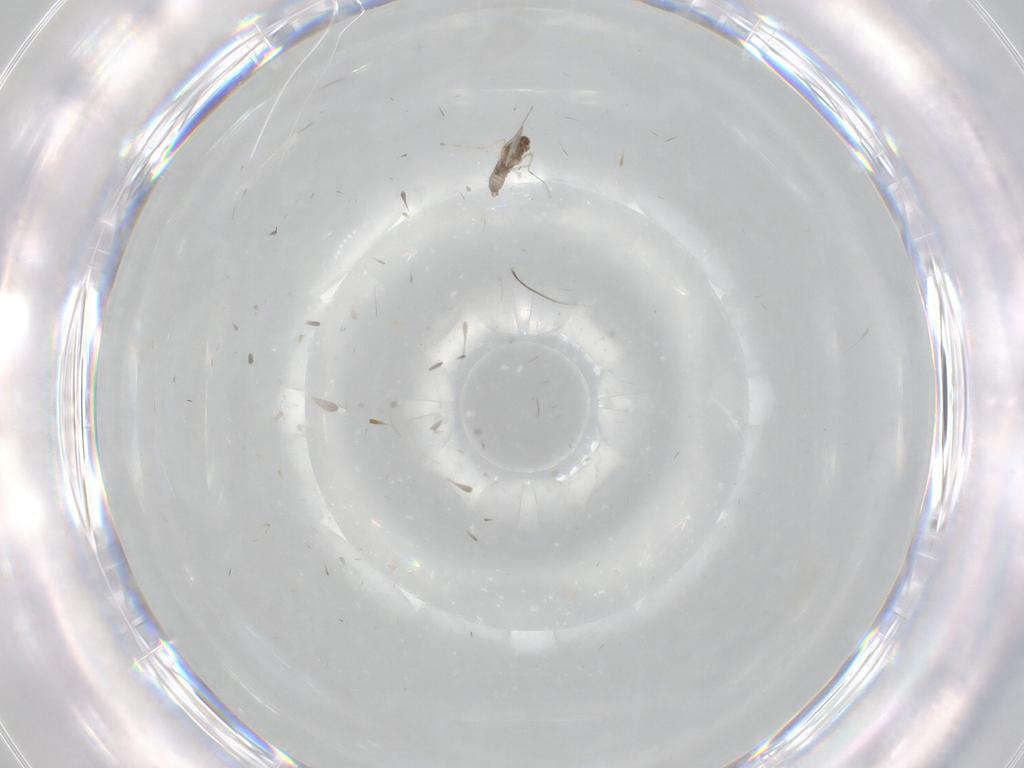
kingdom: Animalia
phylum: Arthropoda
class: Insecta
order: Diptera
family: Cecidomyiidae
